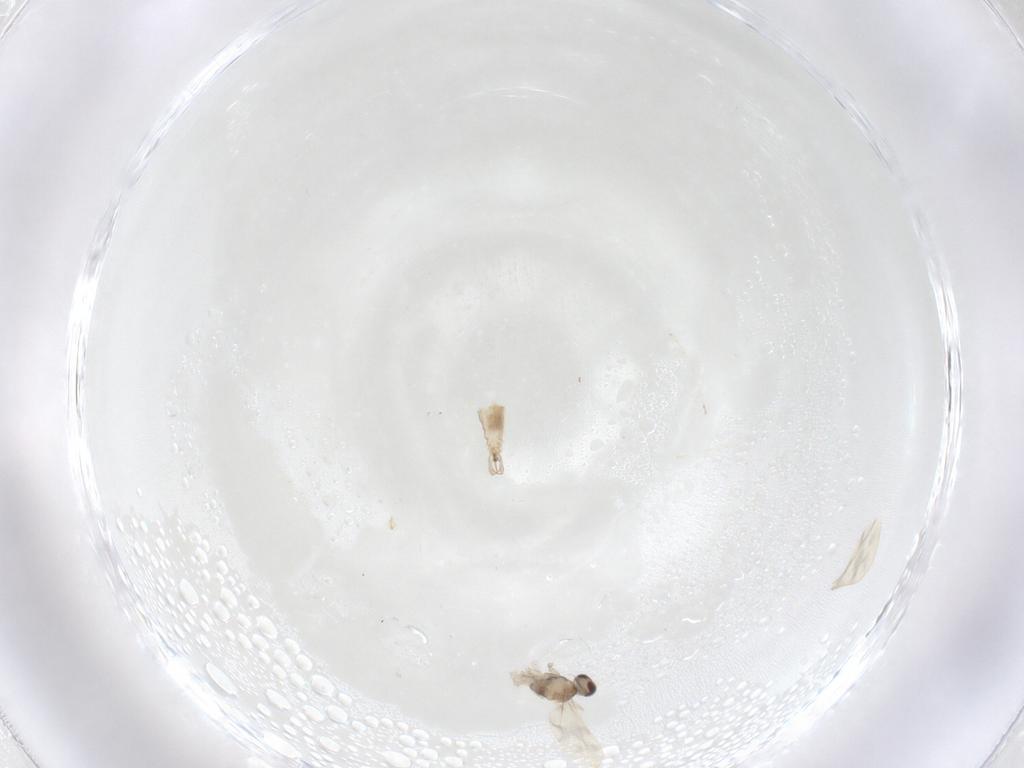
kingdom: Animalia
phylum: Arthropoda
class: Insecta
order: Diptera
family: Cecidomyiidae
